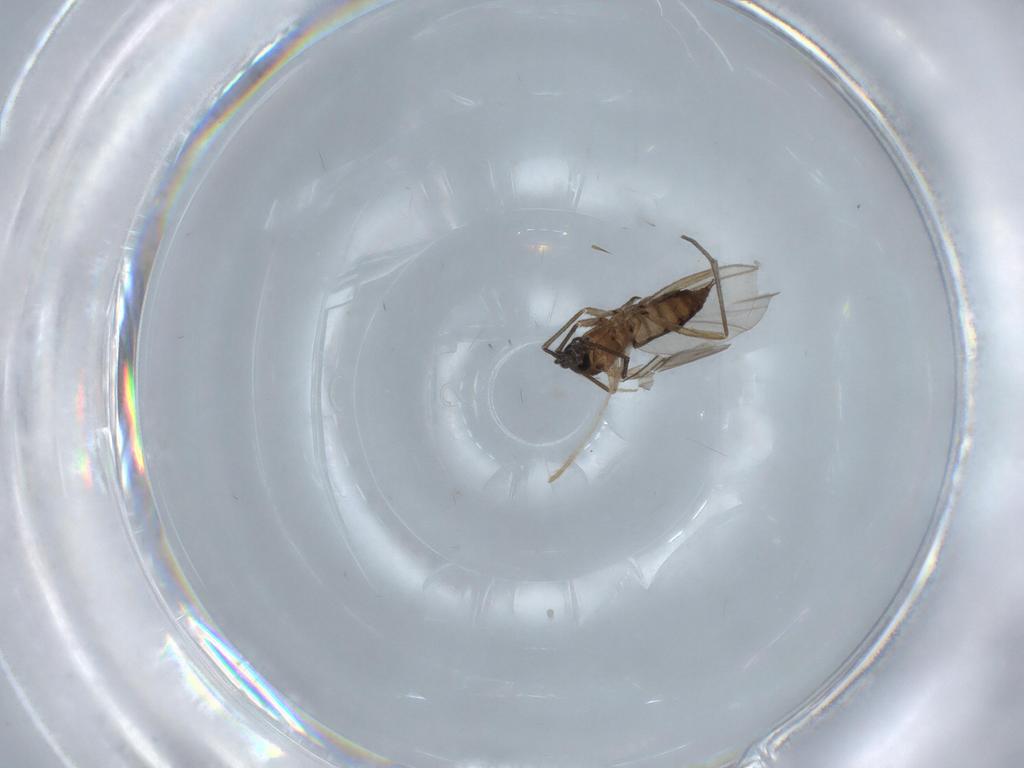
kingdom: Animalia
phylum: Arthropoda
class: Insecta
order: Diptera
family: Sciaridae
